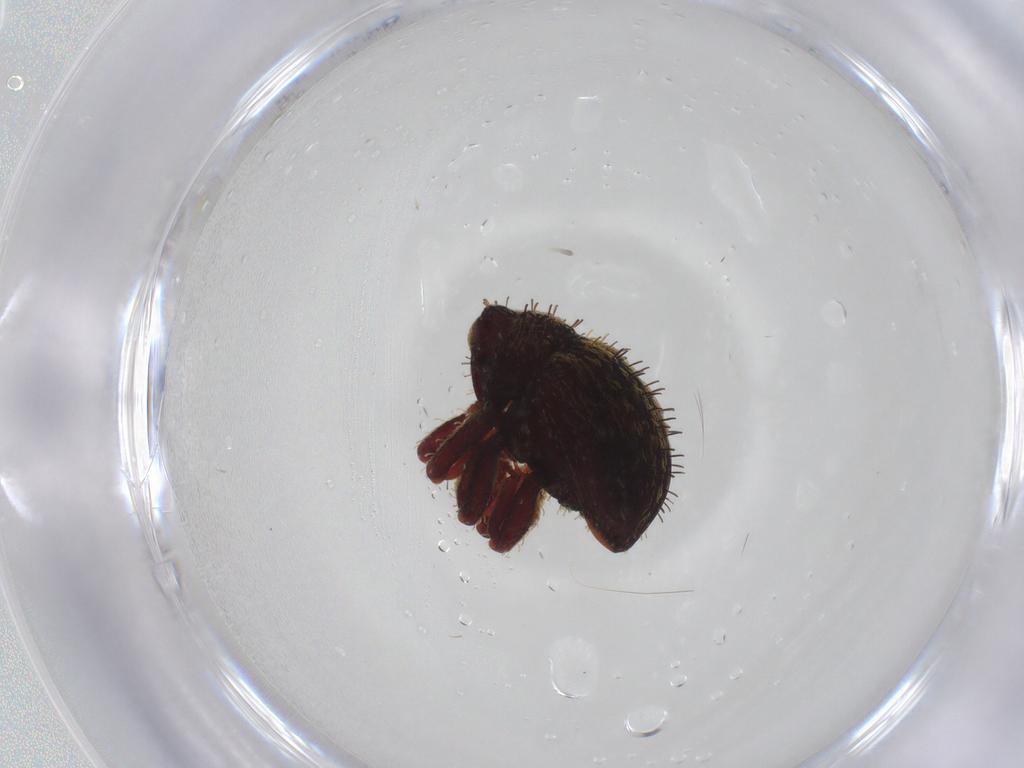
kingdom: Animalia
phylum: Arthropoda
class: Insecta
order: Coleoptera
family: Curculionidae
